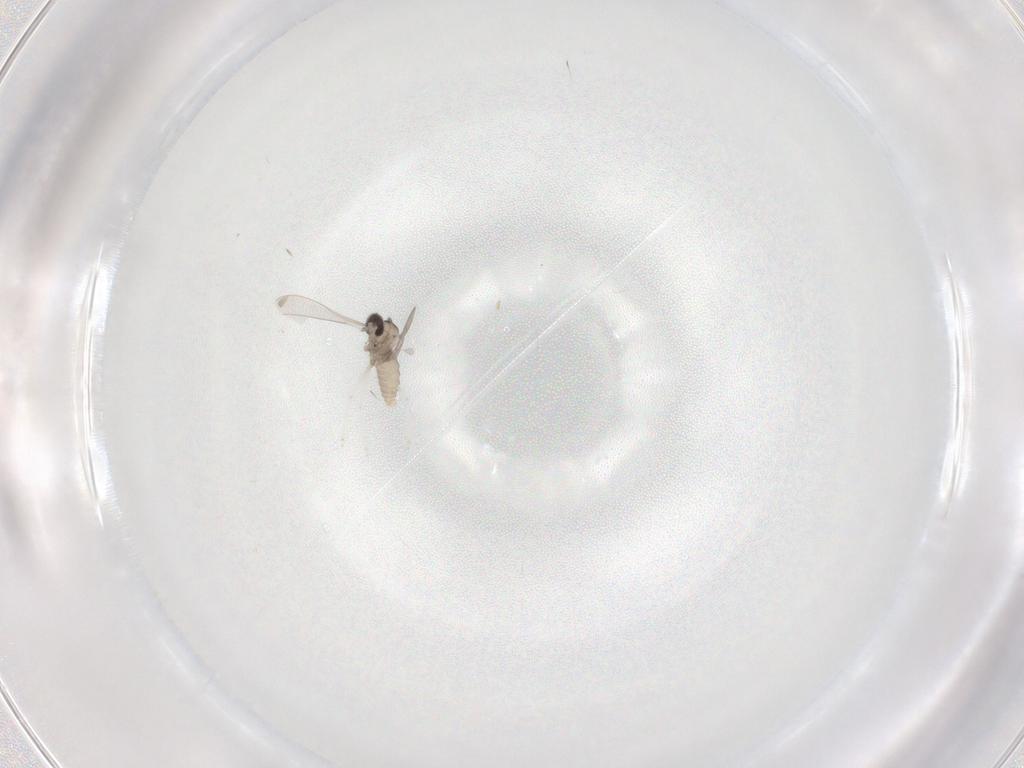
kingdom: Animalia
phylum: Arthropoda
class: Insecta
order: Diptera
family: Cecidomyiidae
